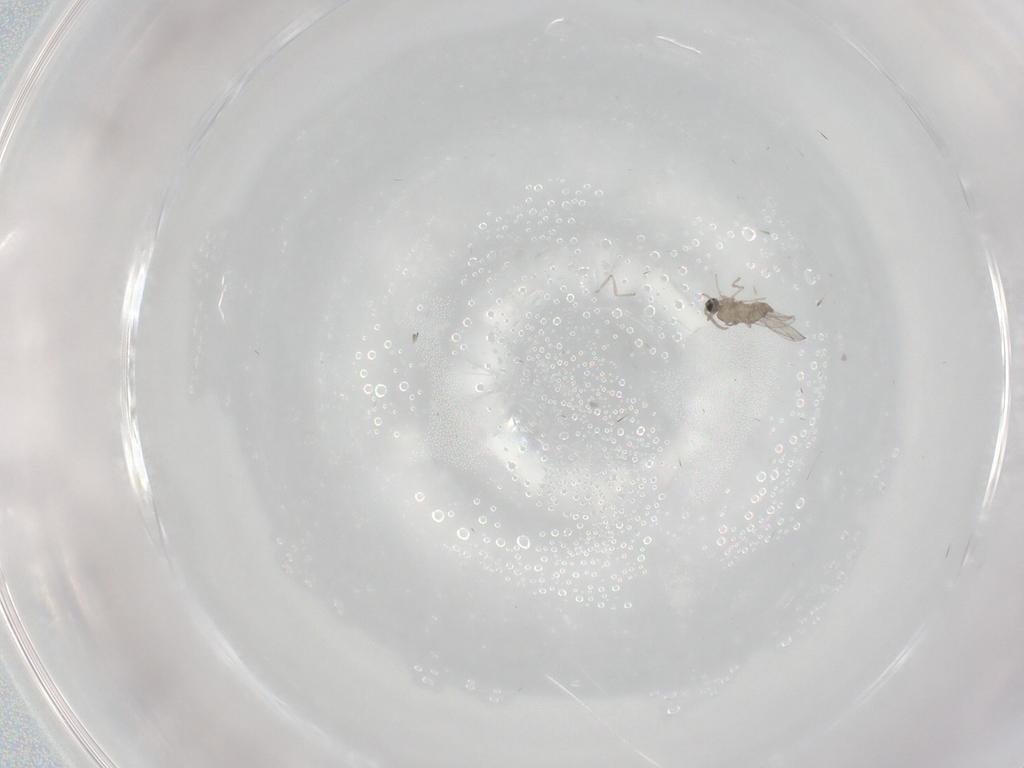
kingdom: Animalia
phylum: Arthropoda
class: Insecta
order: Diptera
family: Cecidomyiidae
